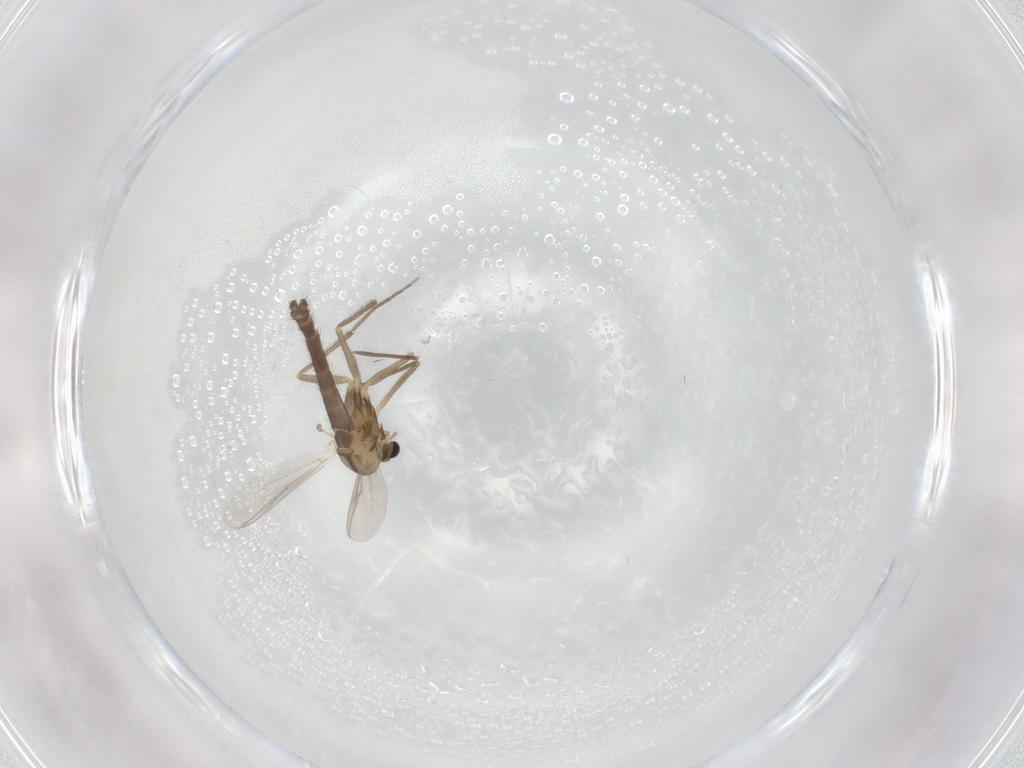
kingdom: Animalia
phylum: Arthropoda
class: Insecta
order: Diptera
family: Chironomidae
